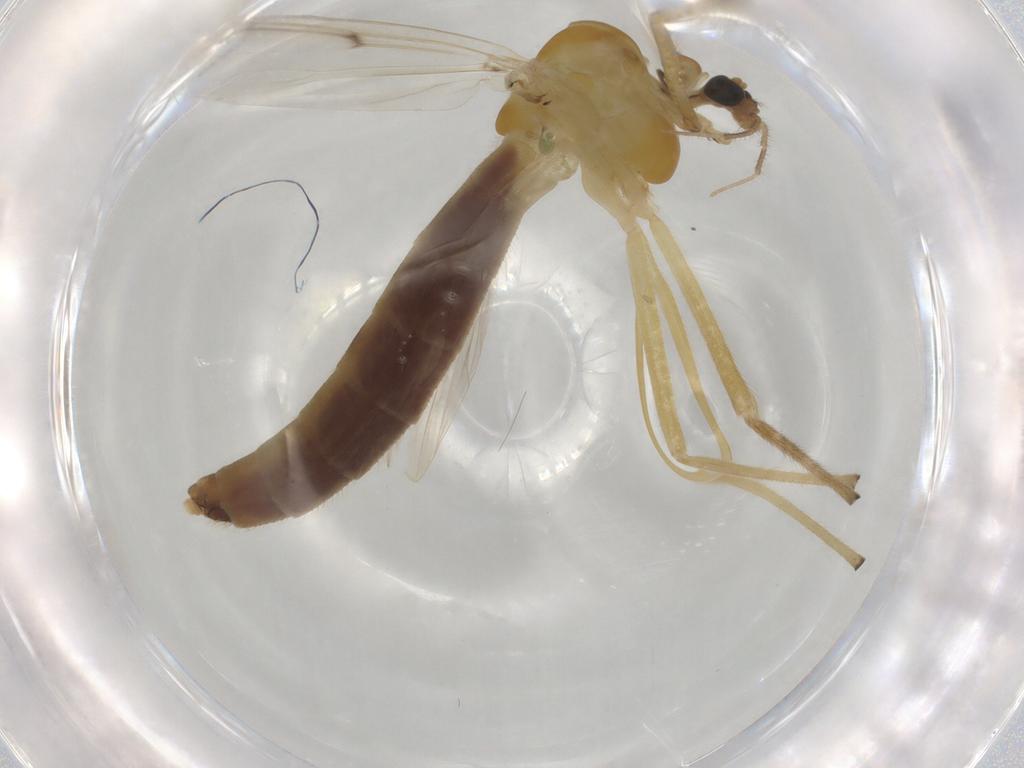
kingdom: Animalia
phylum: Arthropoda
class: Insecta
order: Diptera
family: Chironomidae
